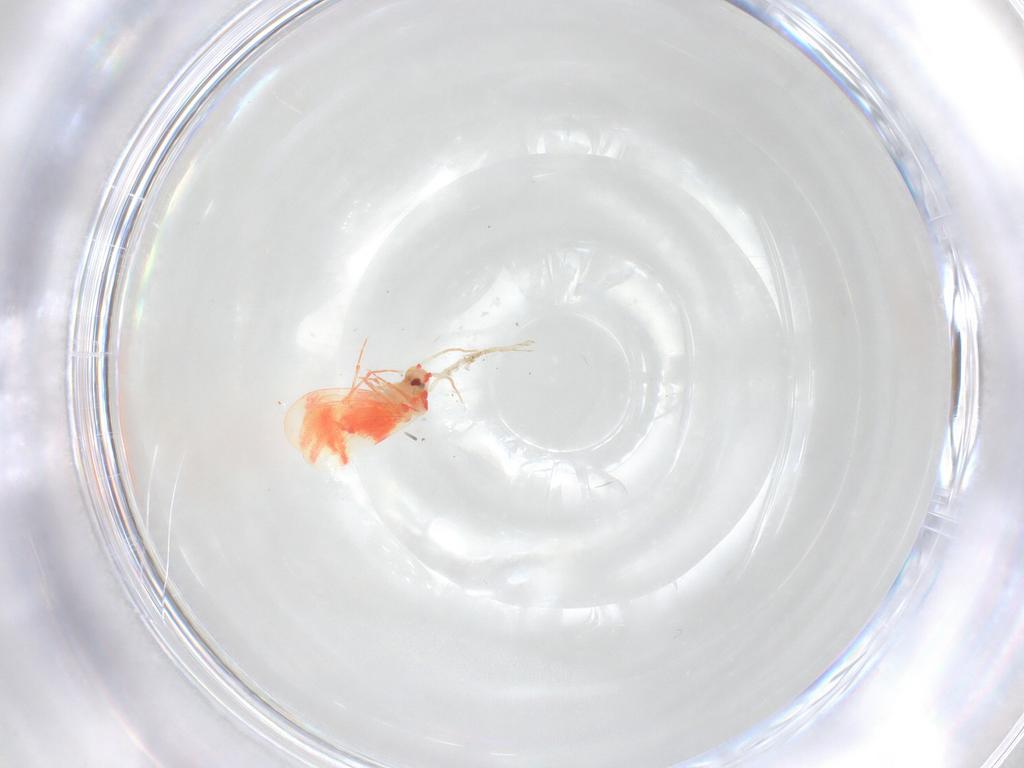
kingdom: Animalia
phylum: Arthropoda
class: Insecta
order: Hemiptera
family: Aleyrodidae
